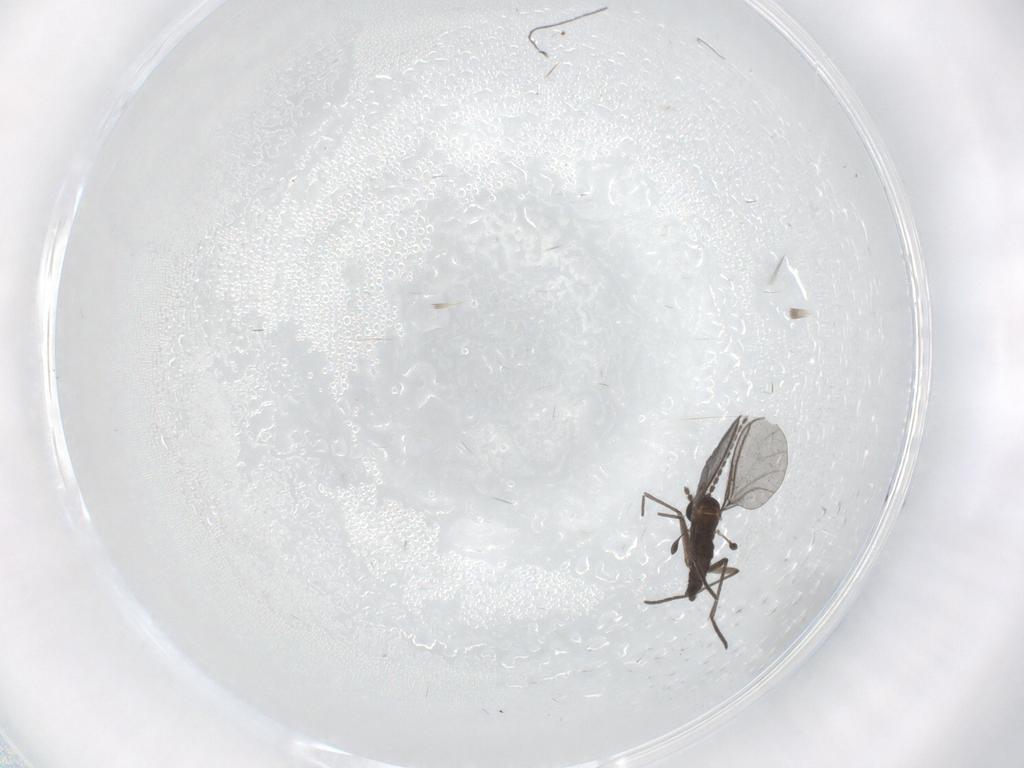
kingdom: Animalia
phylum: Arthropoda
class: Insecta
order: Diptera
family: Phoridae
